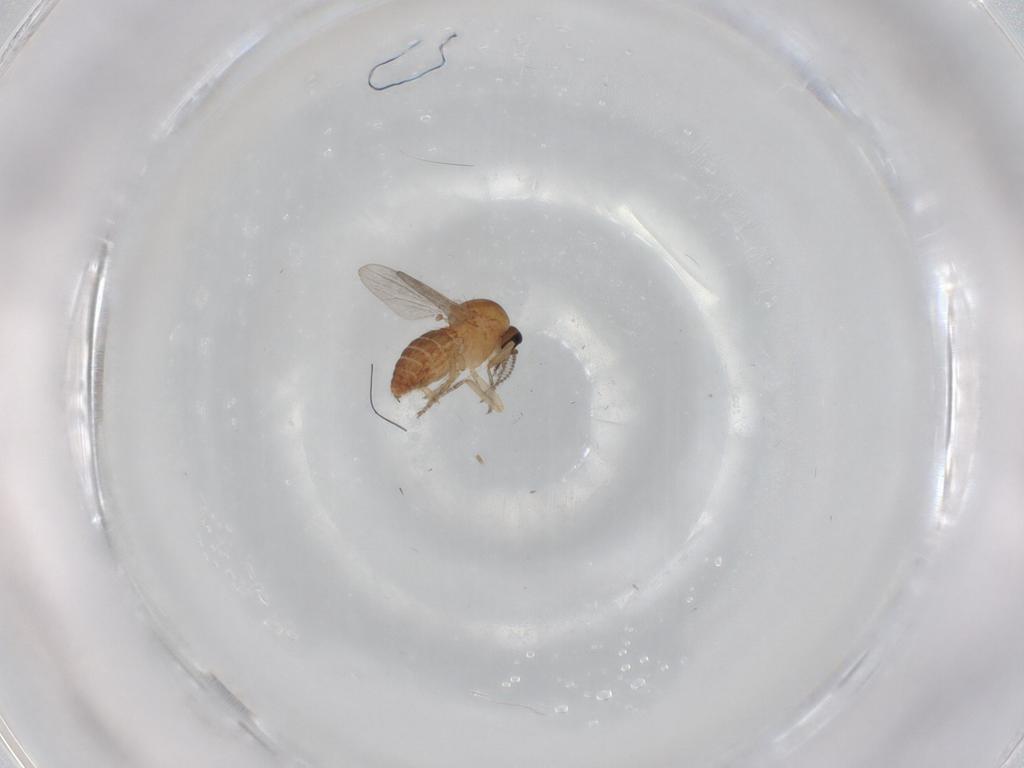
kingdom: Animalia
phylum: Arthropoda
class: Insecta
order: Diptera
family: Ceratopogonidae
